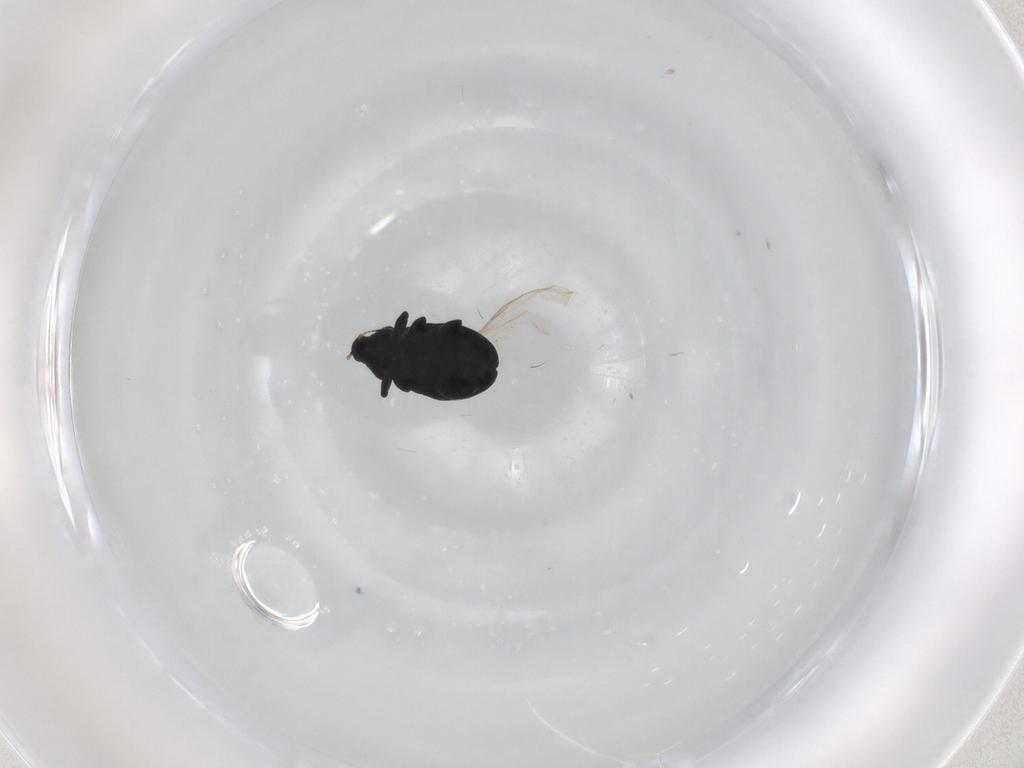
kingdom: Animalia
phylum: Arthropoda
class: Insecta
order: Coleoptera
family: Curculionidae
